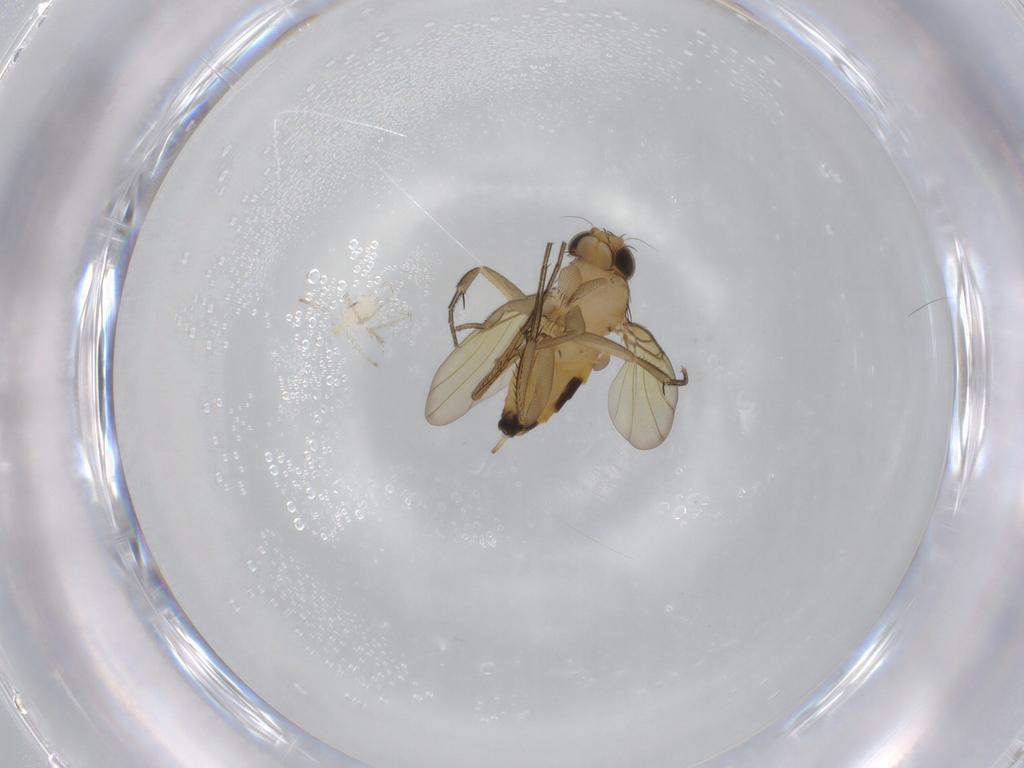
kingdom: Animalia
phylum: Arthropoda
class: Insecta
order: Diptera
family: Phoridae
